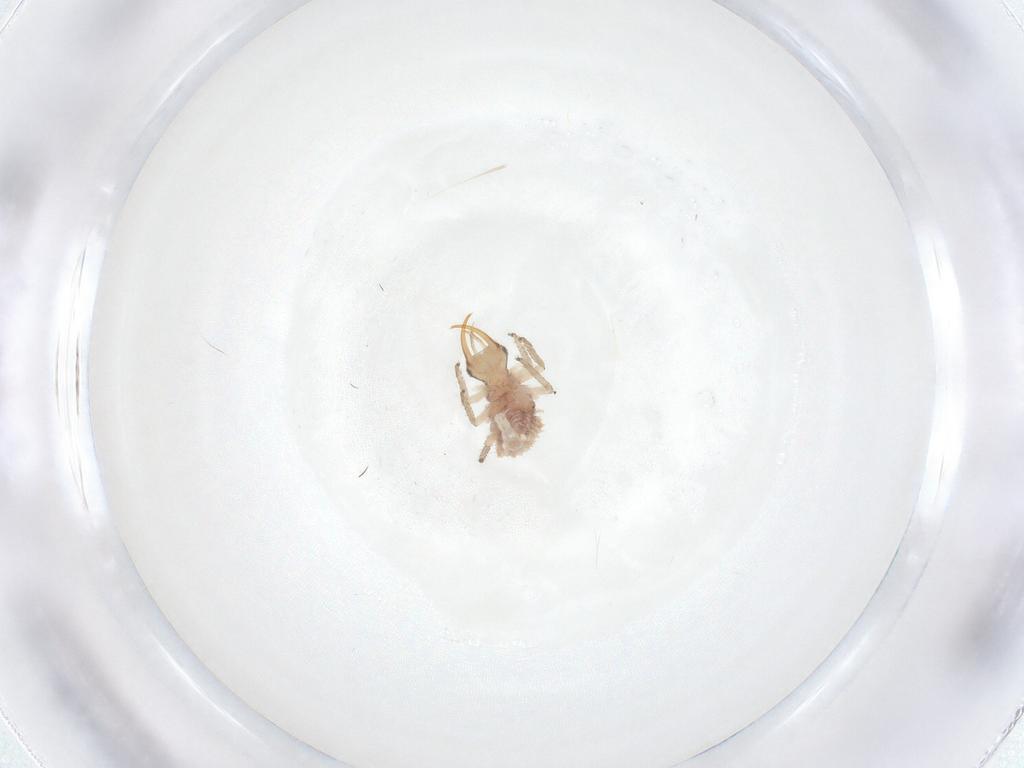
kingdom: Animalia
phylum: Arthropoda
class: Insecta
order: Neuroptera
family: Chrysopidae
